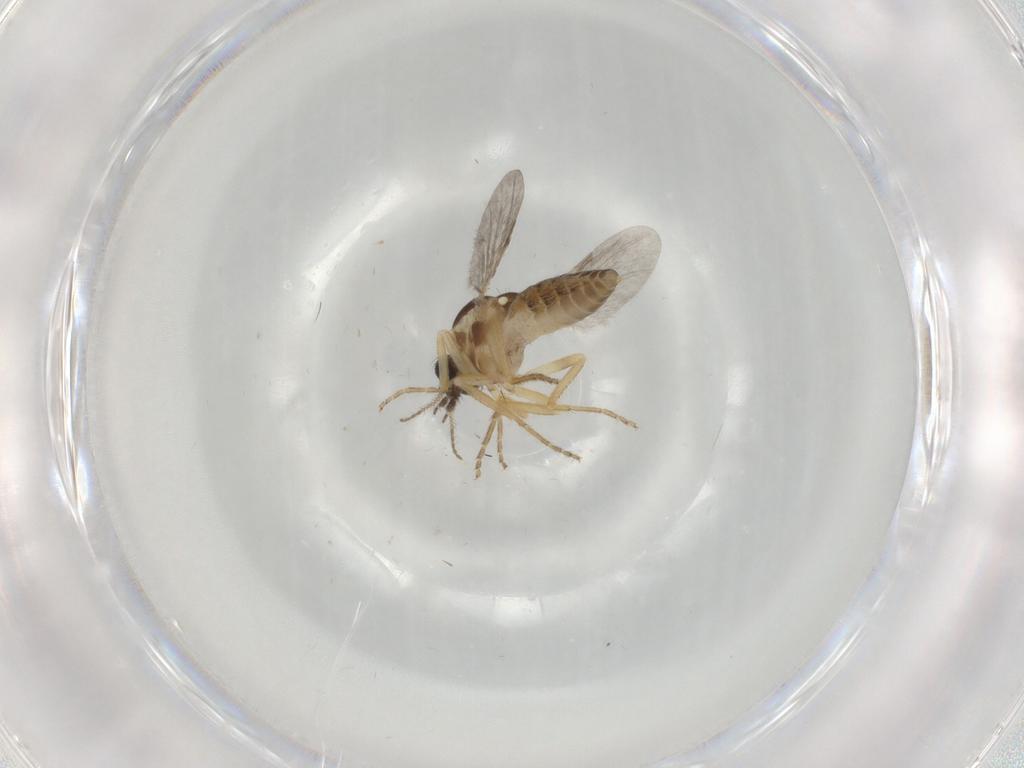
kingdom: Animalia
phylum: Arthropoda
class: Insecta
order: Diptera
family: Ceratopogonidae
